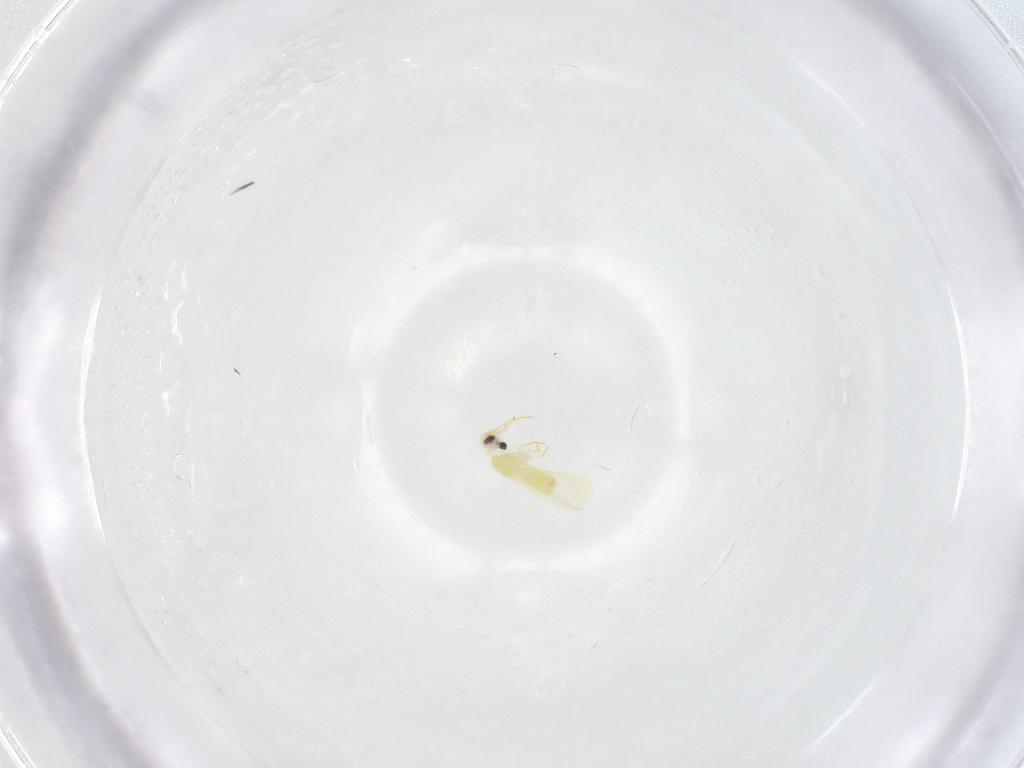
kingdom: Animalia
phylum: Arthropoda
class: Insecta
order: Hemiptera
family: Aleyrodidae
